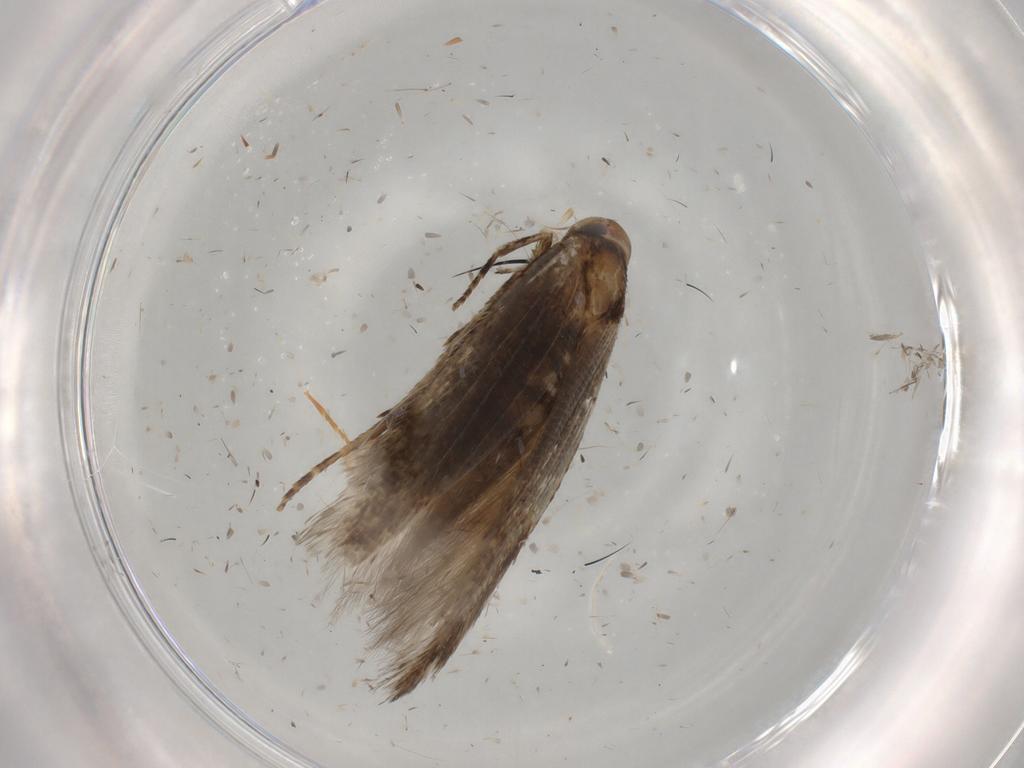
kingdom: Animalia
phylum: Arthropoda
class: Insecta
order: Lepidoptera
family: Cosmopterigidae
